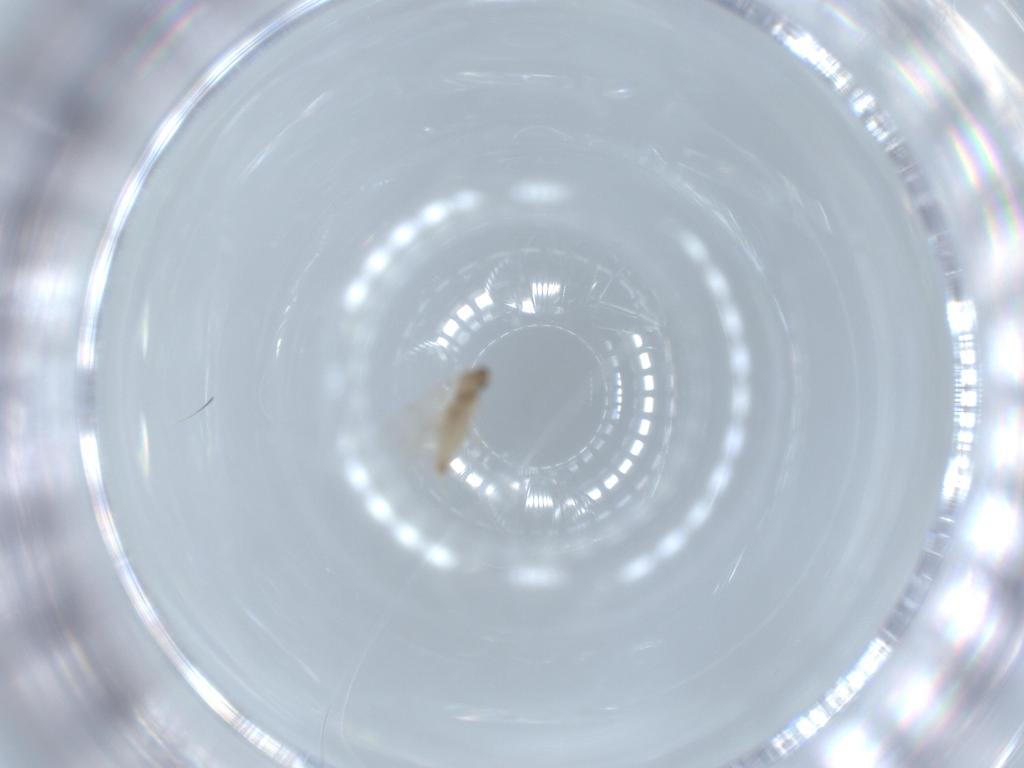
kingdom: Animalia
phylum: Arthropoda
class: Insecta
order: Diptera
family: Cecidomyiidae
